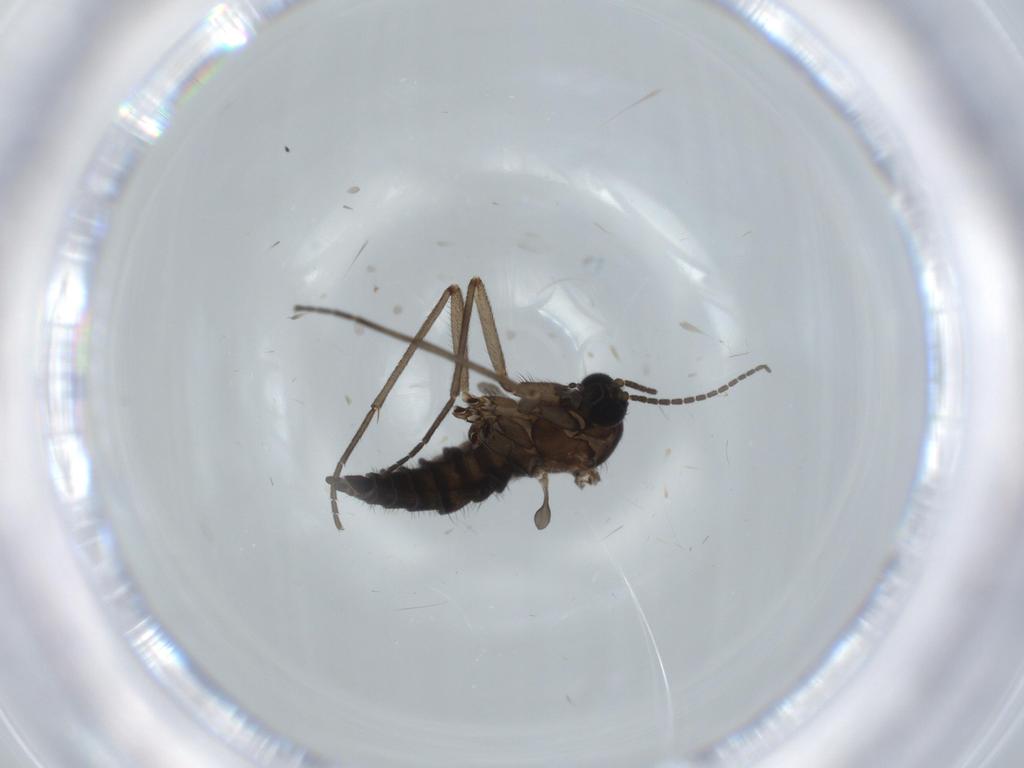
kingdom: Animalia
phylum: Arthropoda
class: Insecta
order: Diptera
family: Sciaridae
